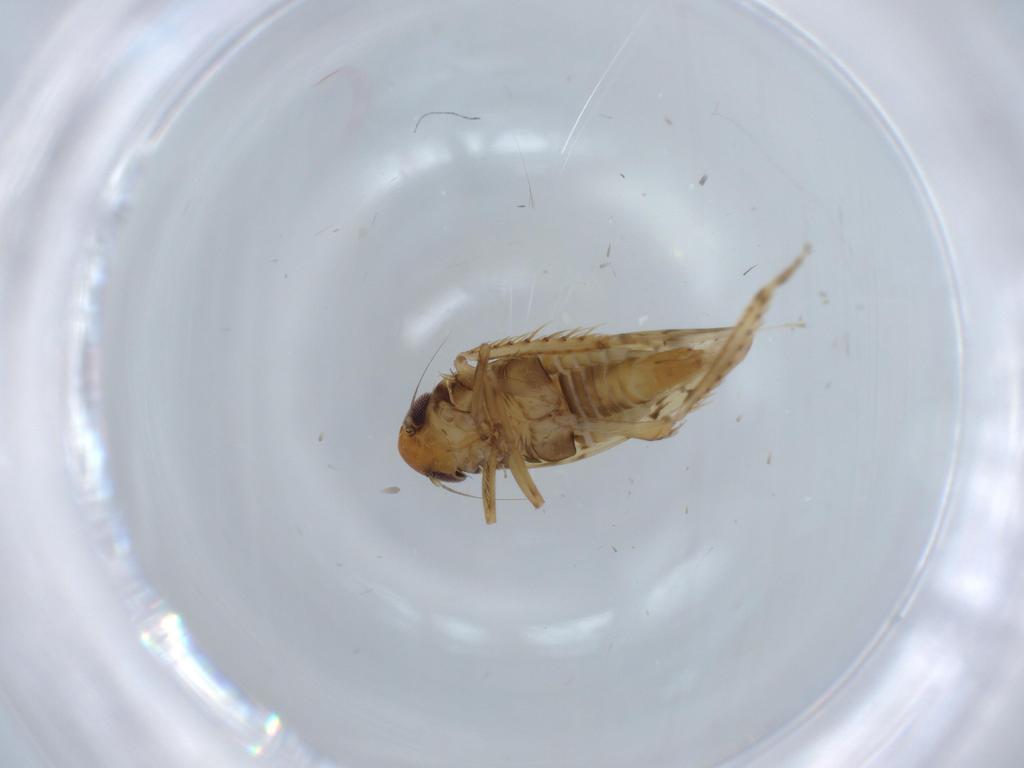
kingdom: Animalia
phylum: Arthropoda
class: Insecta
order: Hemiptera
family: Cicadellidae
